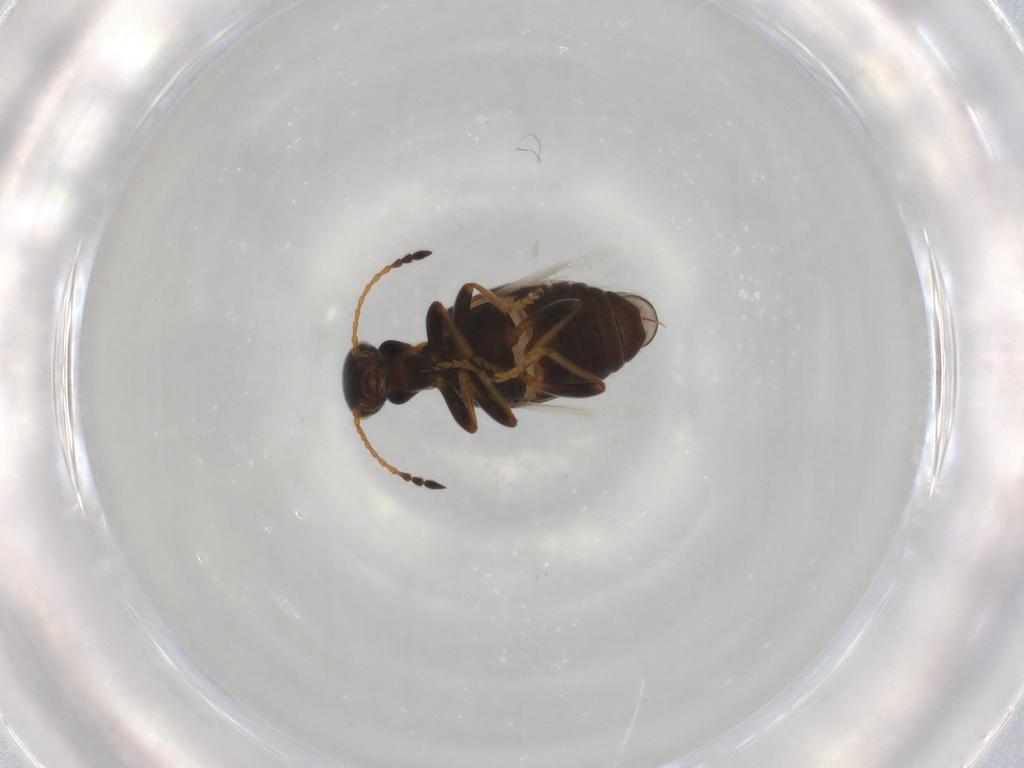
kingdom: Animalia
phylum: Arthropoda
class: Insecta
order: Coleoptera
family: Anthicidae
